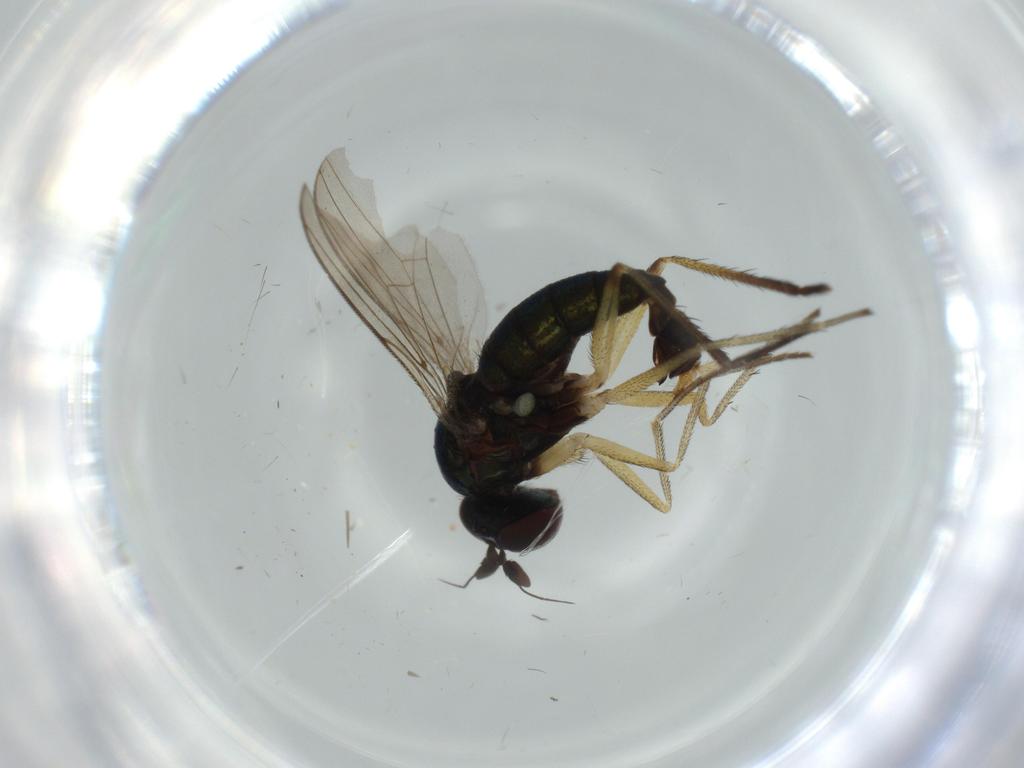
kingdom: Animalia
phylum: Arthropoda
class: Insecta
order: Diptera
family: Dolichopodidae
